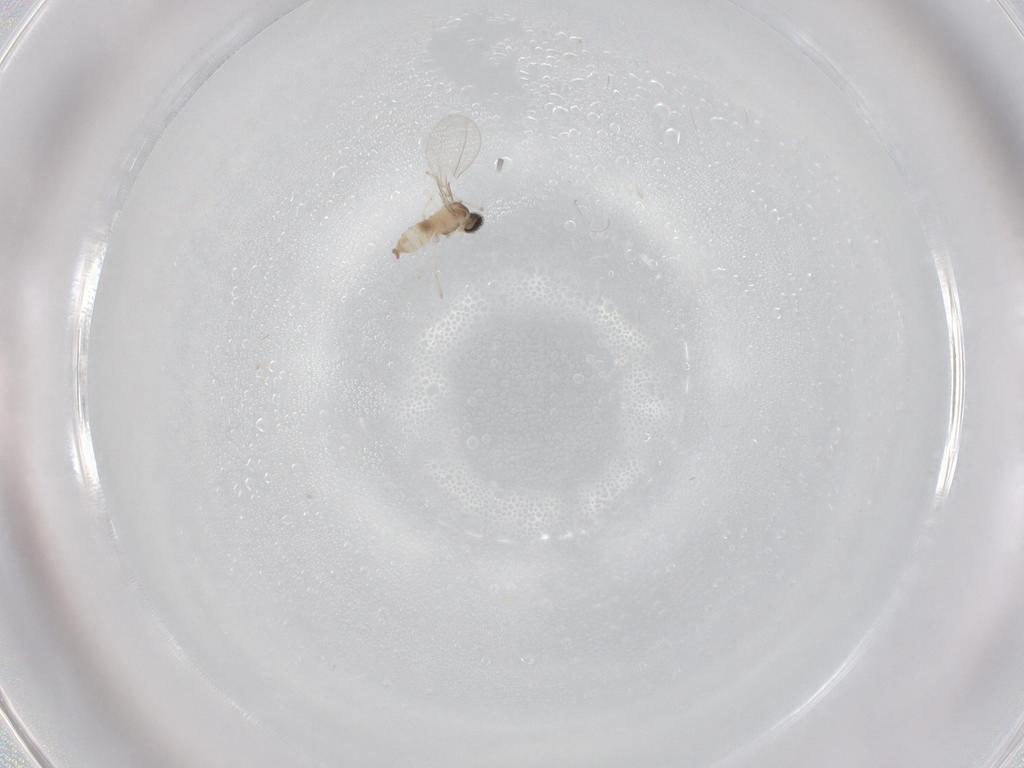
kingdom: Animalia
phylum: Arthropoda
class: Insecta
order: Diptera
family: Cecidomyiidae
